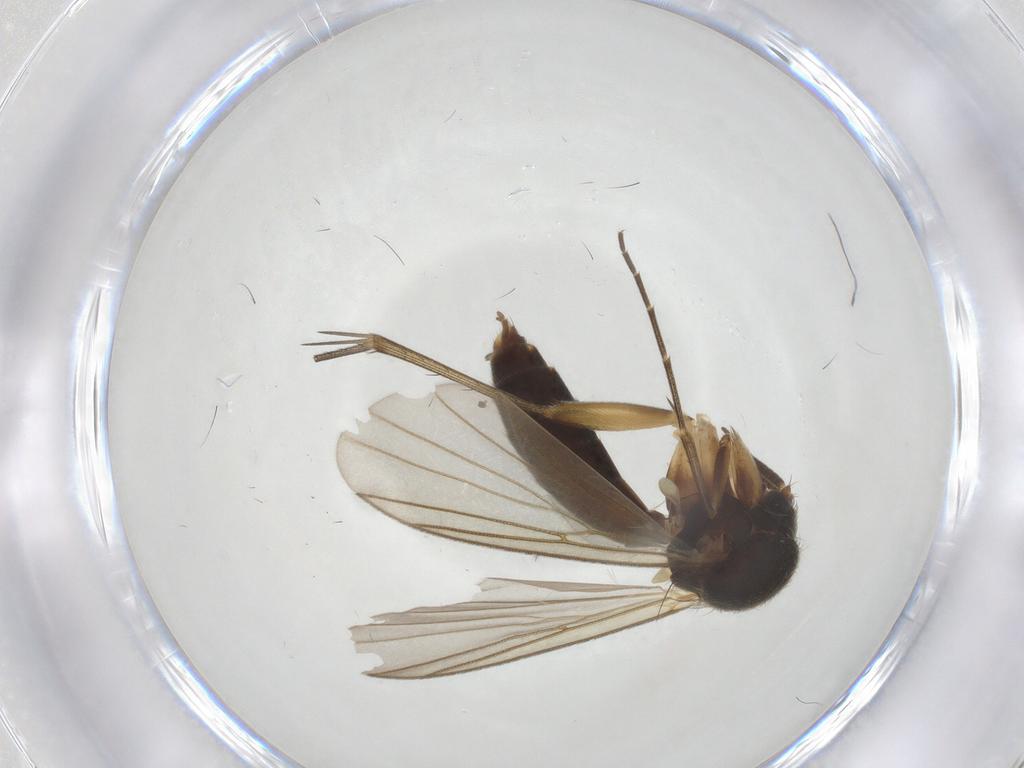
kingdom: Animalia
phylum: Arthropoda
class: Insecta
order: Diptera
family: Mycetophilidae
